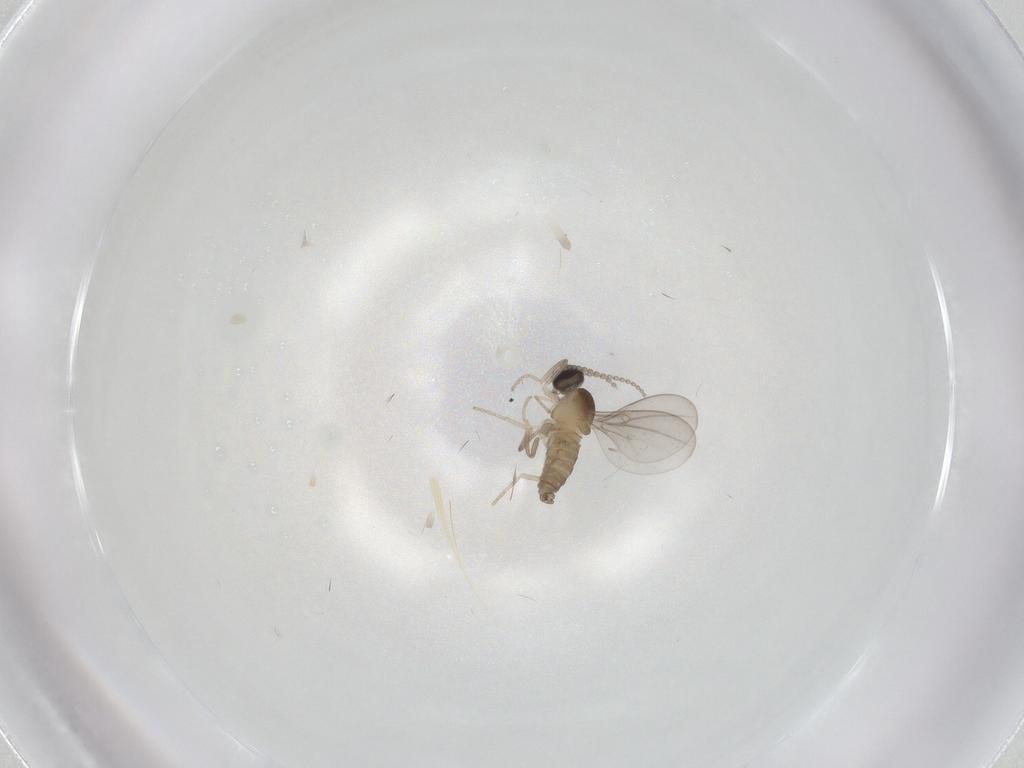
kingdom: Animalia
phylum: Arthropoda
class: Insecta
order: Diptera
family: Cecidomyiidae
